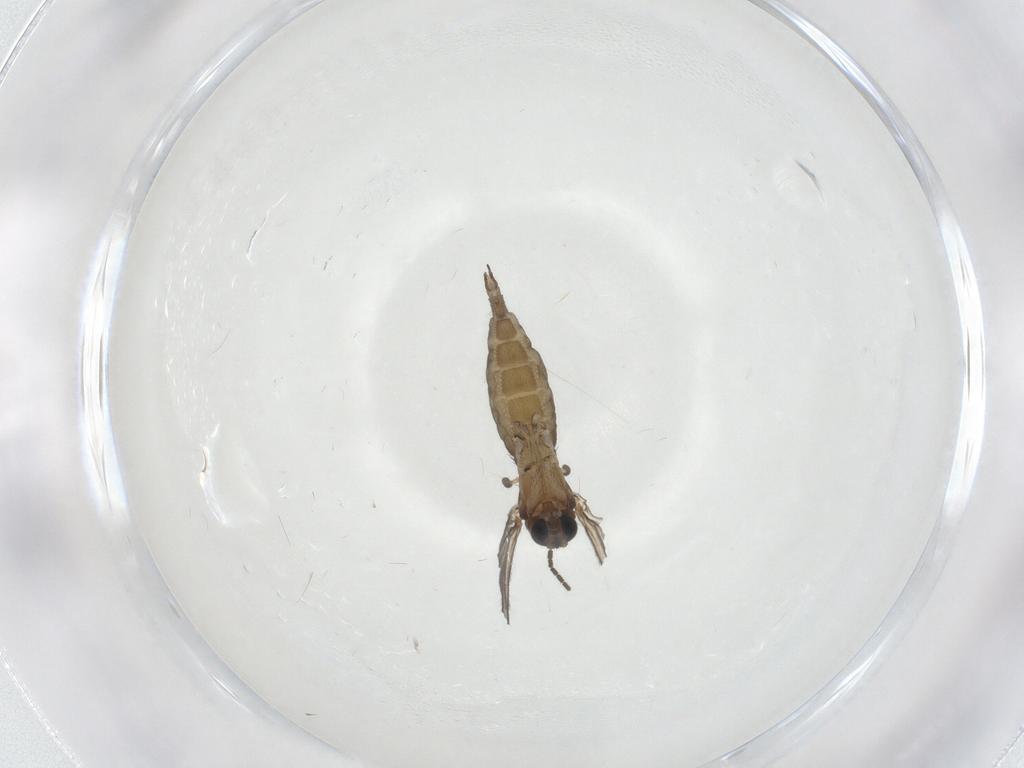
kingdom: Animalia
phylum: Arthropoda
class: Insecta
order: Diptera
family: Sciaridae
